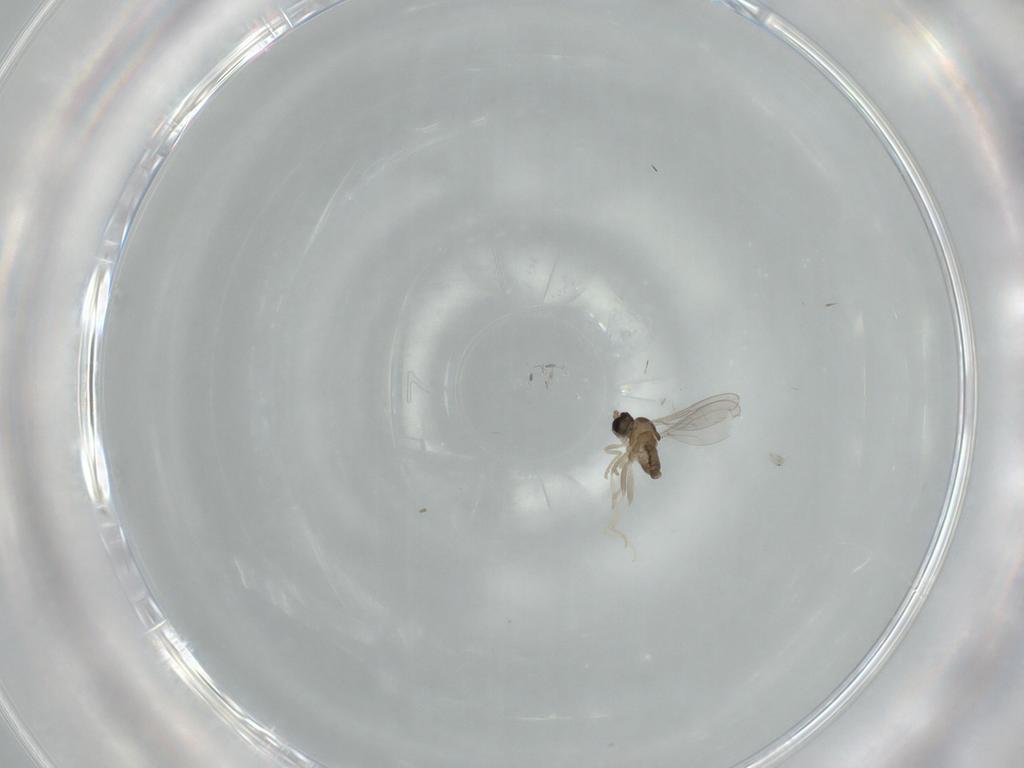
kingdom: Animalia
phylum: Arthropoda
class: Insecta
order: Diptera
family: Cecidomyiidae
